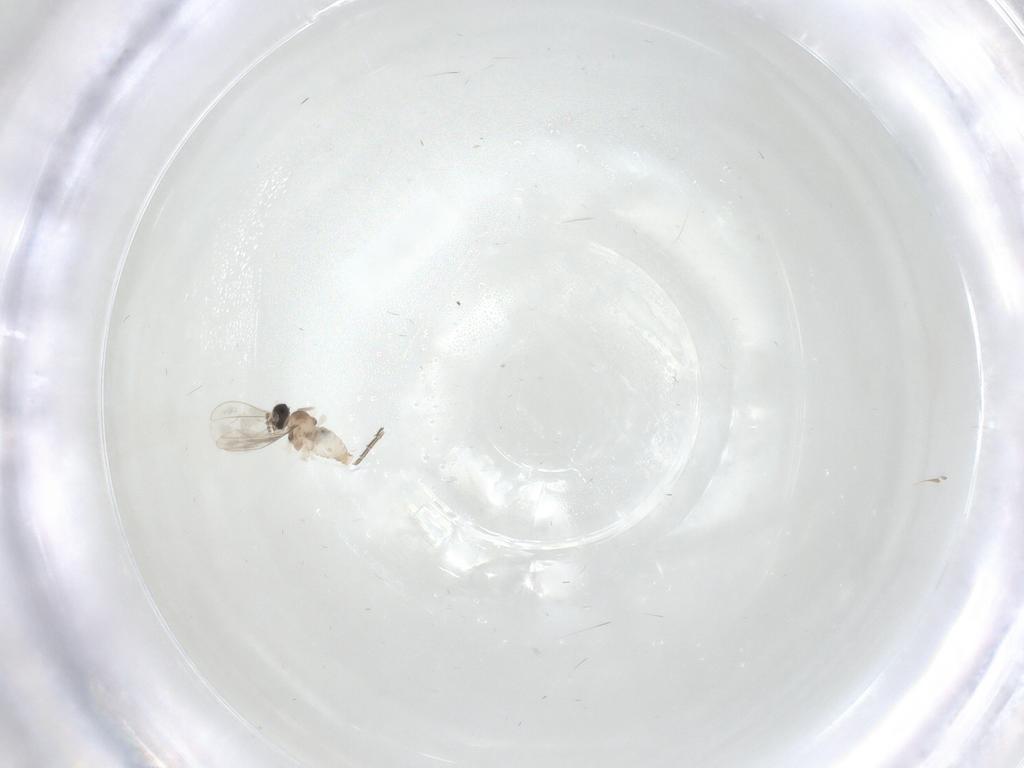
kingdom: Animalia
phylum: Arthropoda
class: Insecta
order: Diptera
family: Cecidomyiidae
